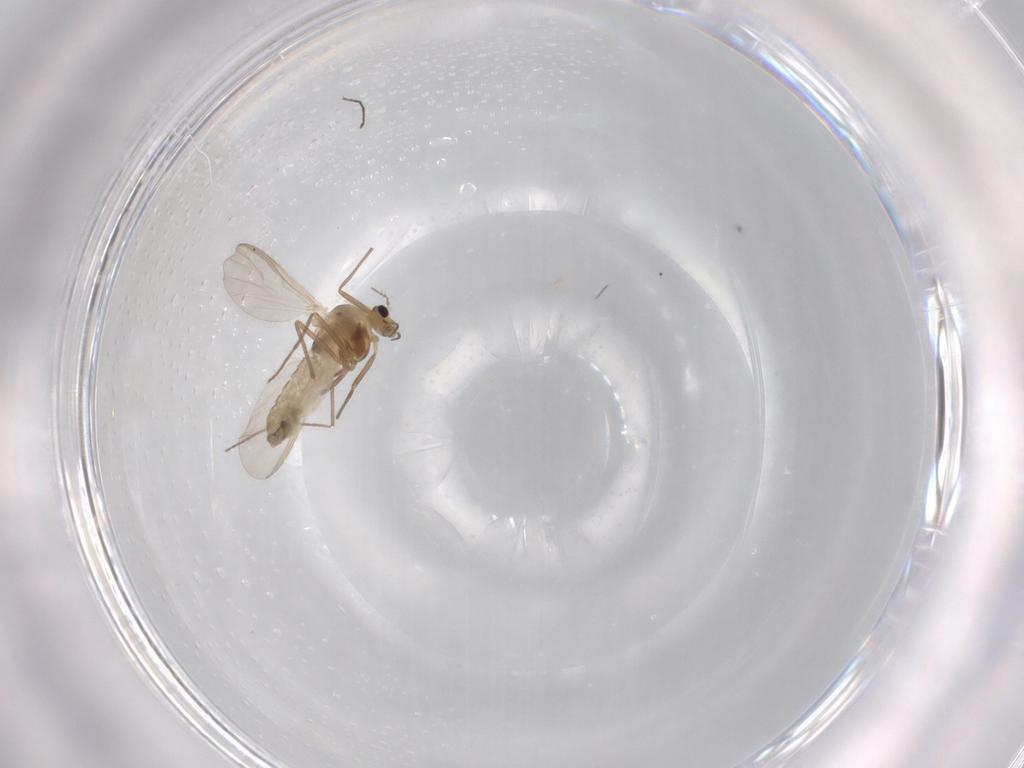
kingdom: Animalia
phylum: Arthropoda
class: Insecta
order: Diptera
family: Chironomidae
